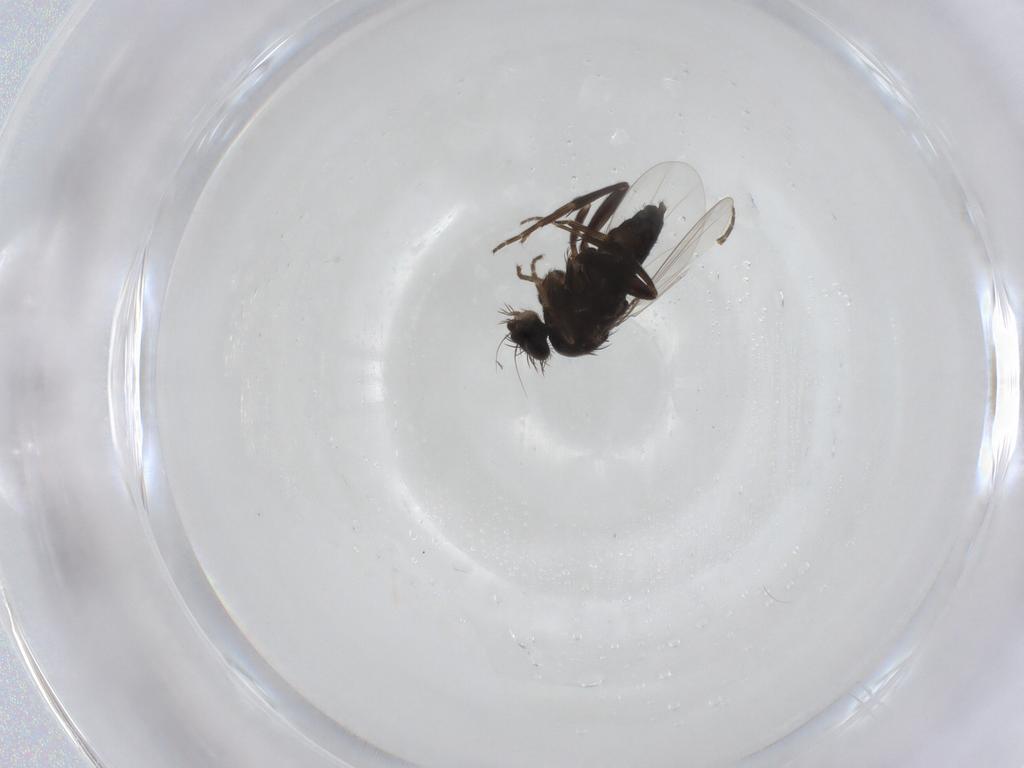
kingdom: Animalia
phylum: Arthropoda
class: Insecta
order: Diptera
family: Phoridae
